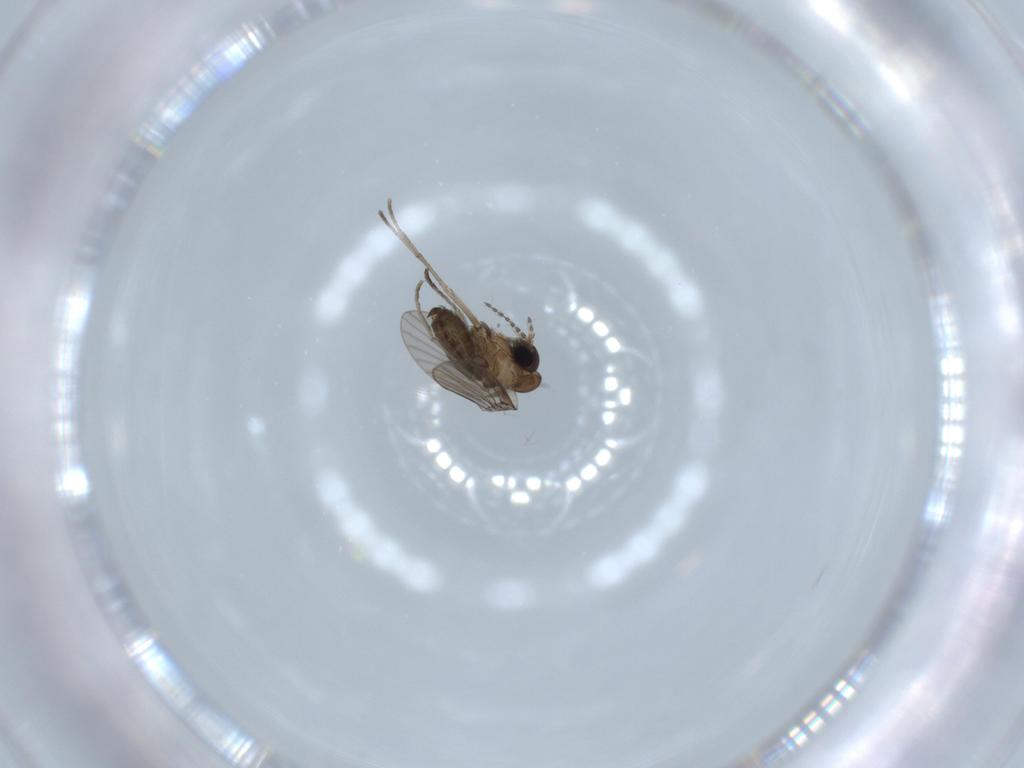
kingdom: Animalia
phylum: Arthropoda
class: Insecta
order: Diptera
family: Psychodidae
